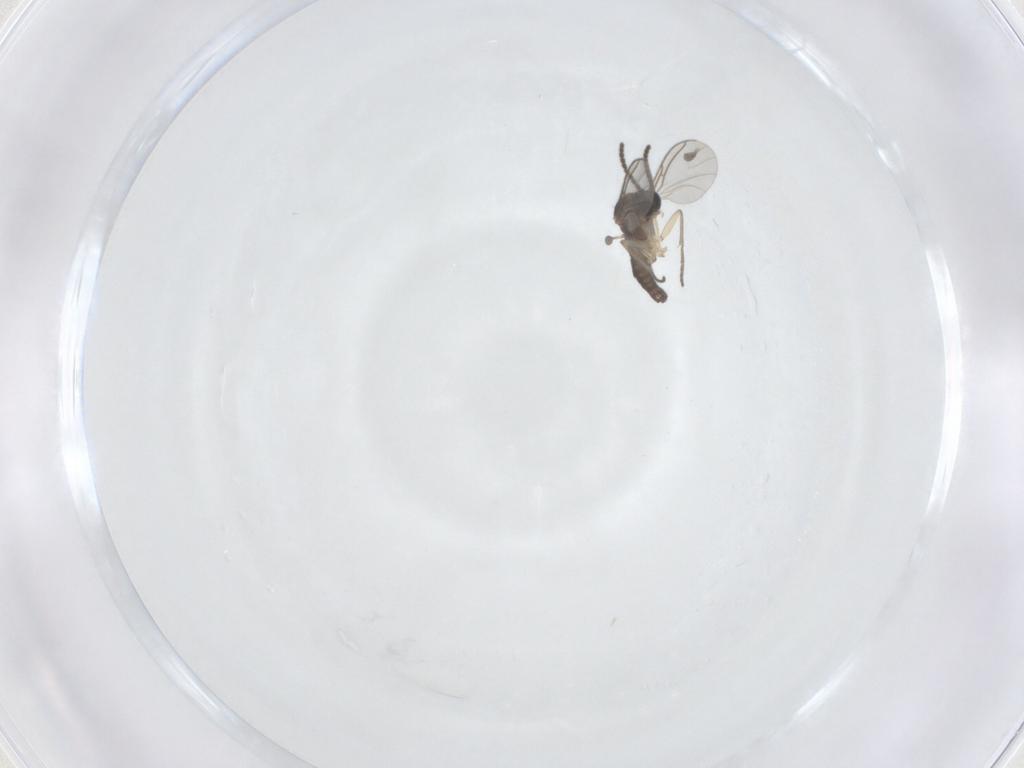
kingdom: Animalia
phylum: Arthropoda
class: Insecta
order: Diptera
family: Sciaridae
